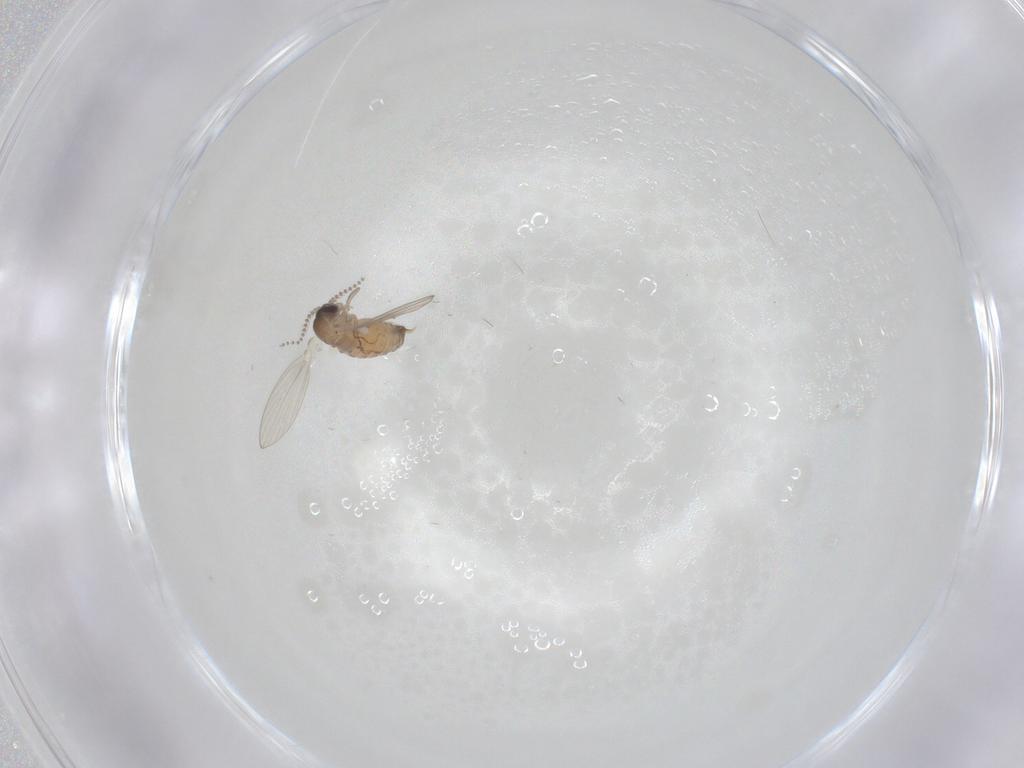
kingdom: Animalia
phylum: Arthropoda
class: Insecta
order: Diptera
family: Psychodidae
